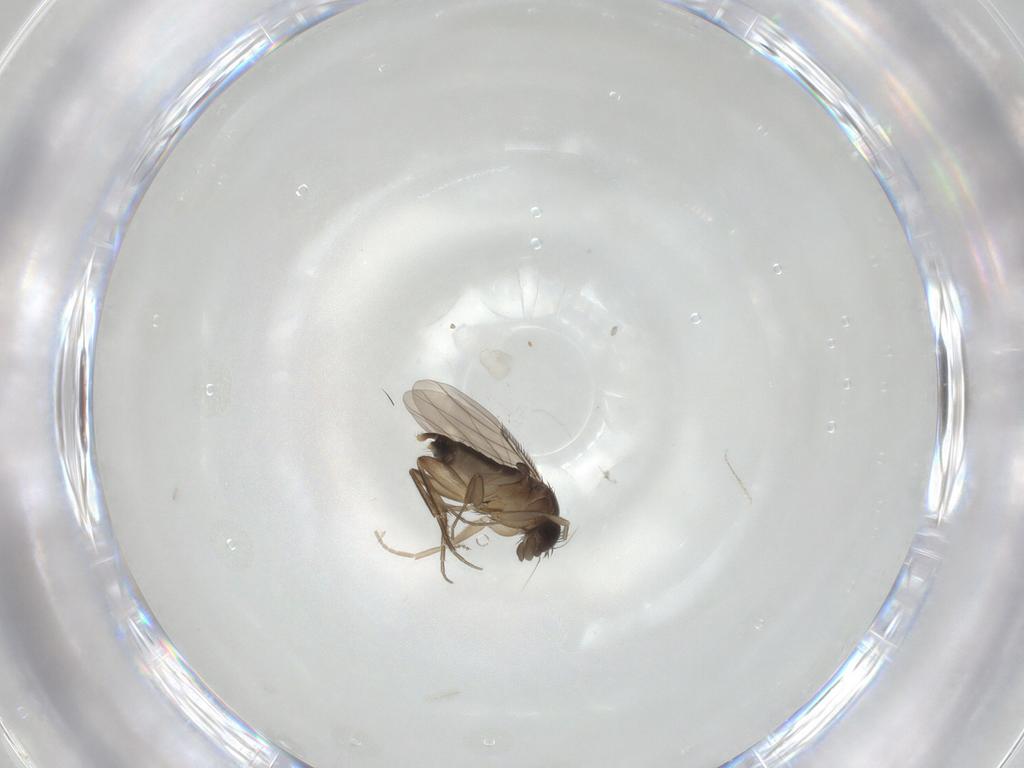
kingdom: Animalia
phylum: Arthropoda
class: Insecta
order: Diptera
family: Phoridae
